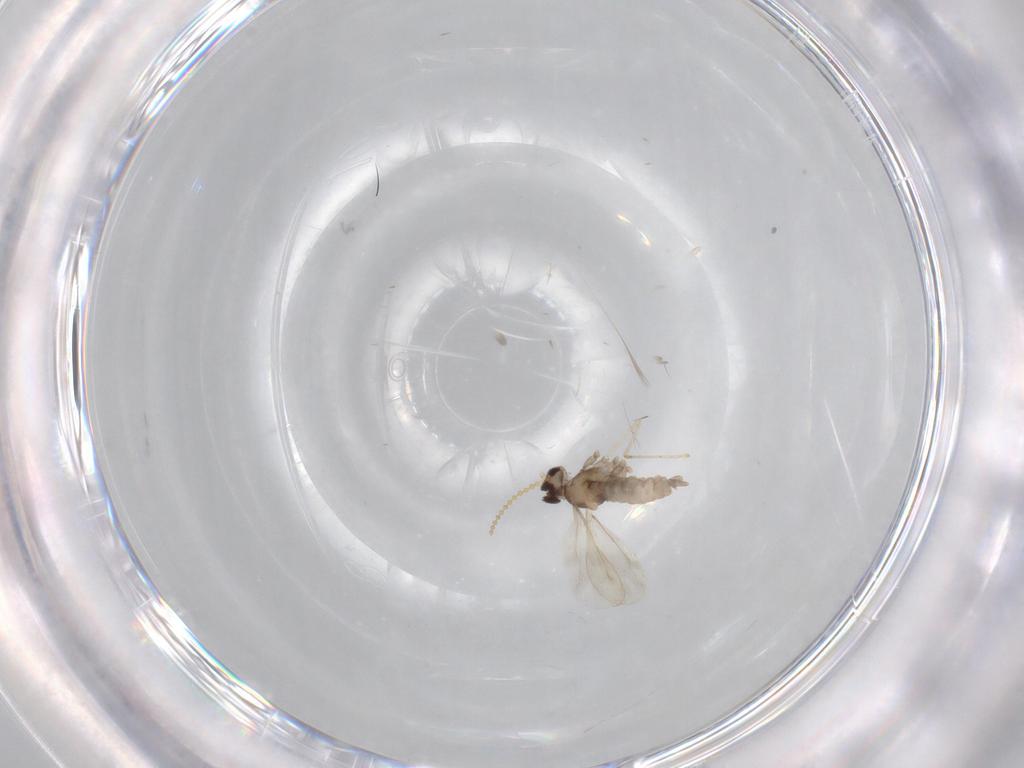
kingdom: Animalia
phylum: Arthropoda
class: Insecta
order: Diptera
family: Cecidomyiidae
